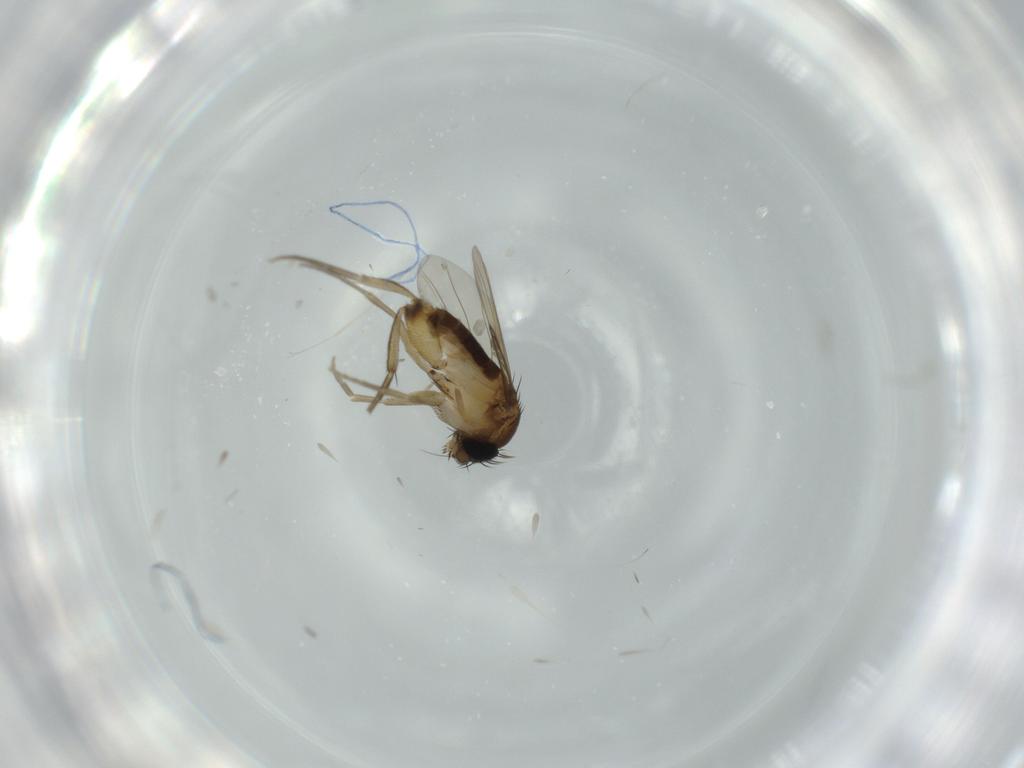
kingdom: Animalia
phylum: Arthropoda
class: Insecta
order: Diptera
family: Phoridae
